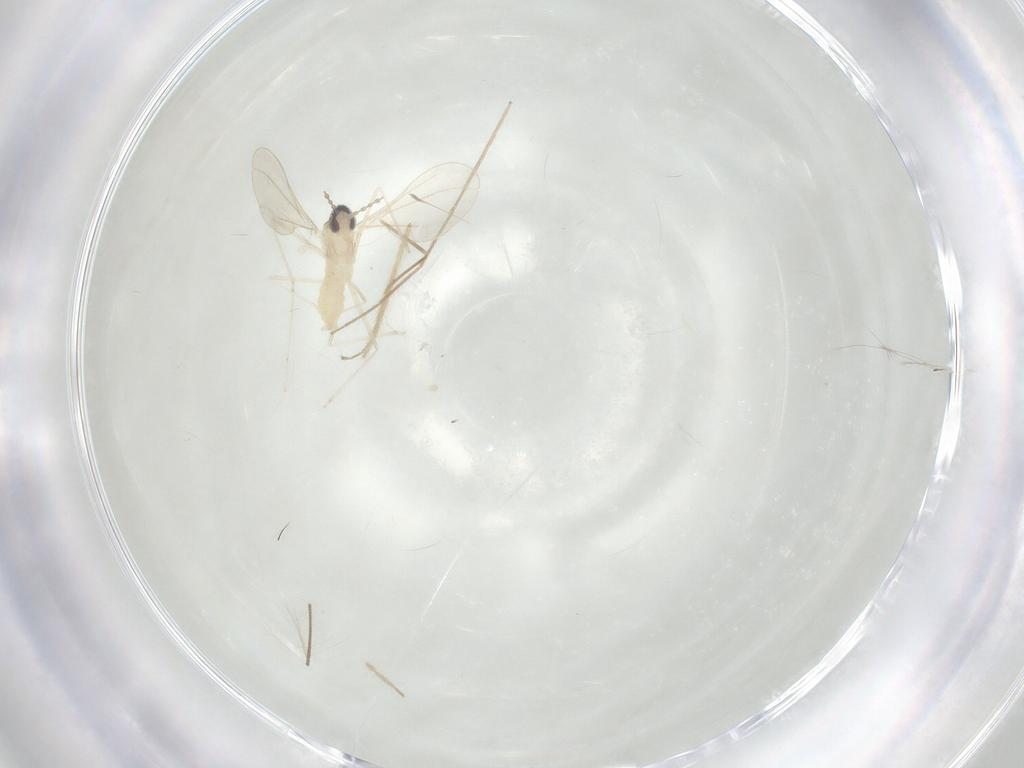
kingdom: Animalia
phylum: Arthropoda
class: Insecta
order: Diptera
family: Cecidomyiidae
